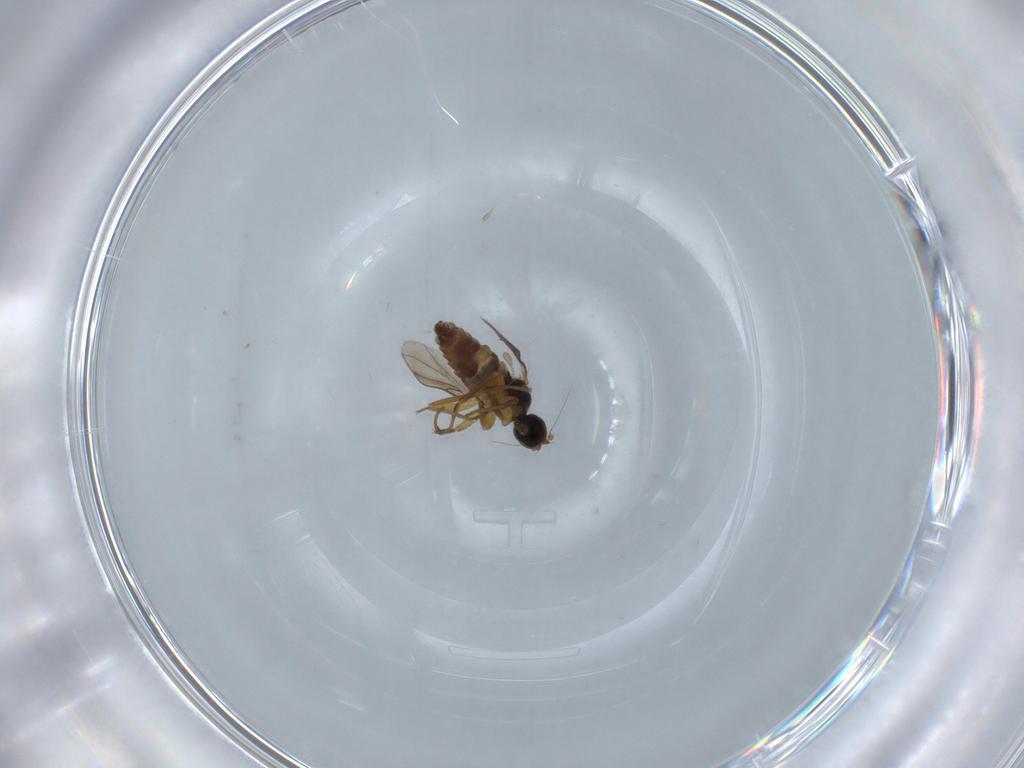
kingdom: Animalia
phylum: Arthropoda
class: Insecta
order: Diptera
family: Hybotidae
